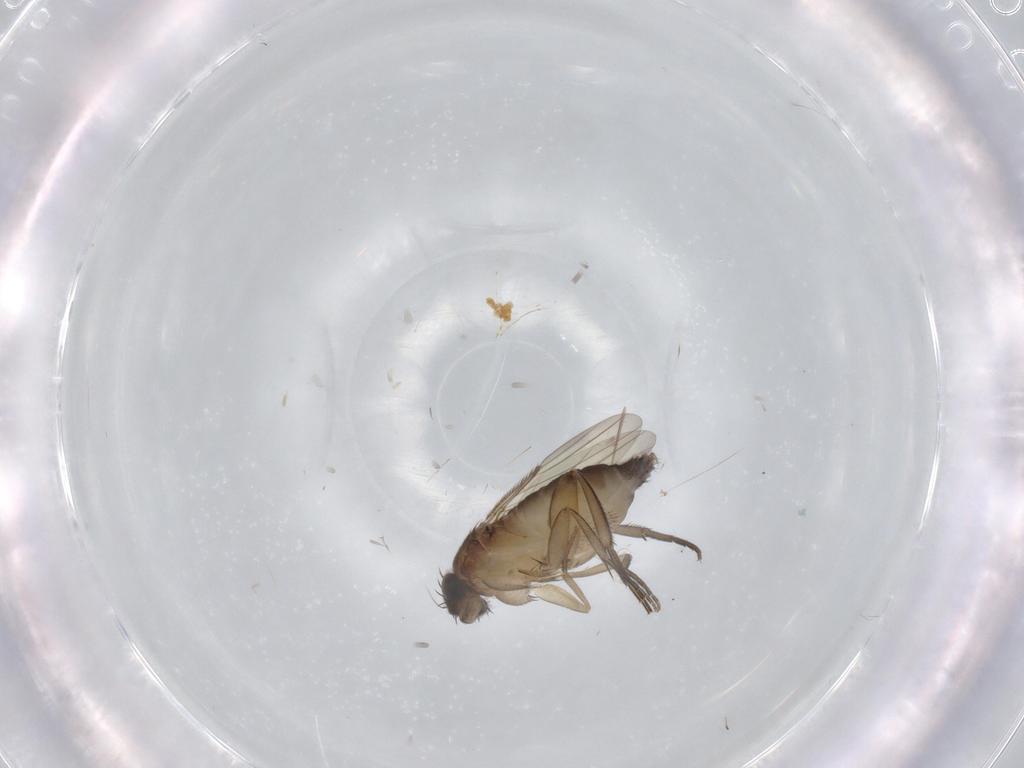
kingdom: Animalia
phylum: Arthropoda
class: Insecta
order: Diptera
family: Phoridae
